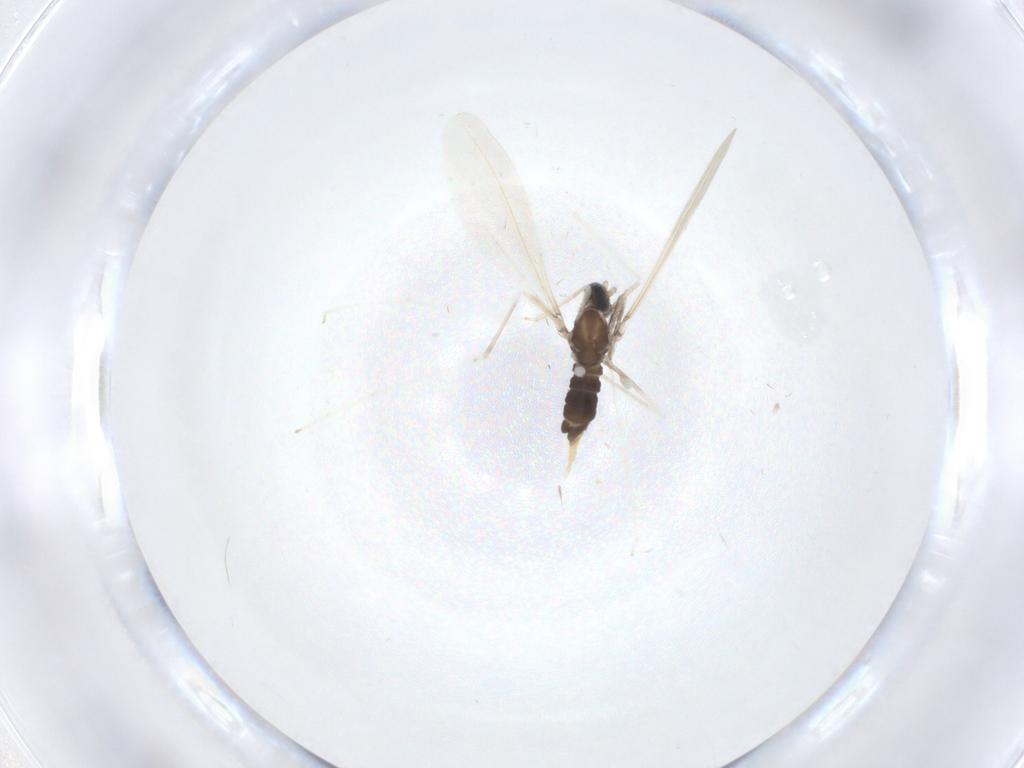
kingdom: Animalia
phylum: Arthropoda
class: Insecta
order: Diptera
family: Cecidomyiidae
